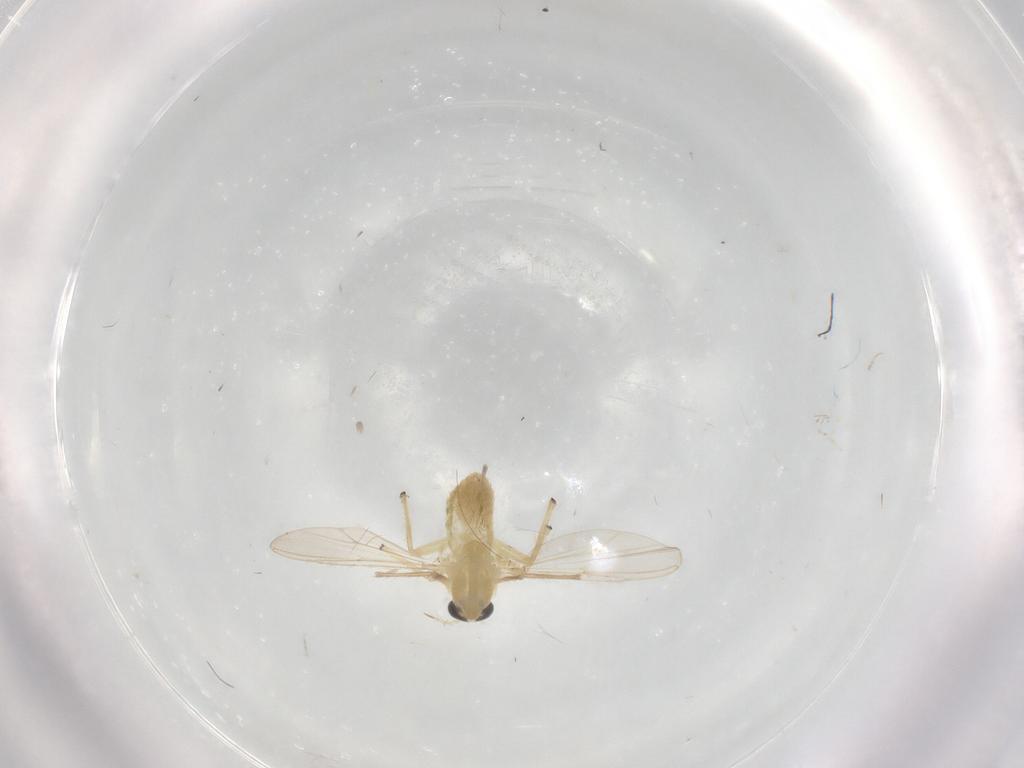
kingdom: Animalia
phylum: Arthropoda
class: Insecta
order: Diptera
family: Chironomidae
